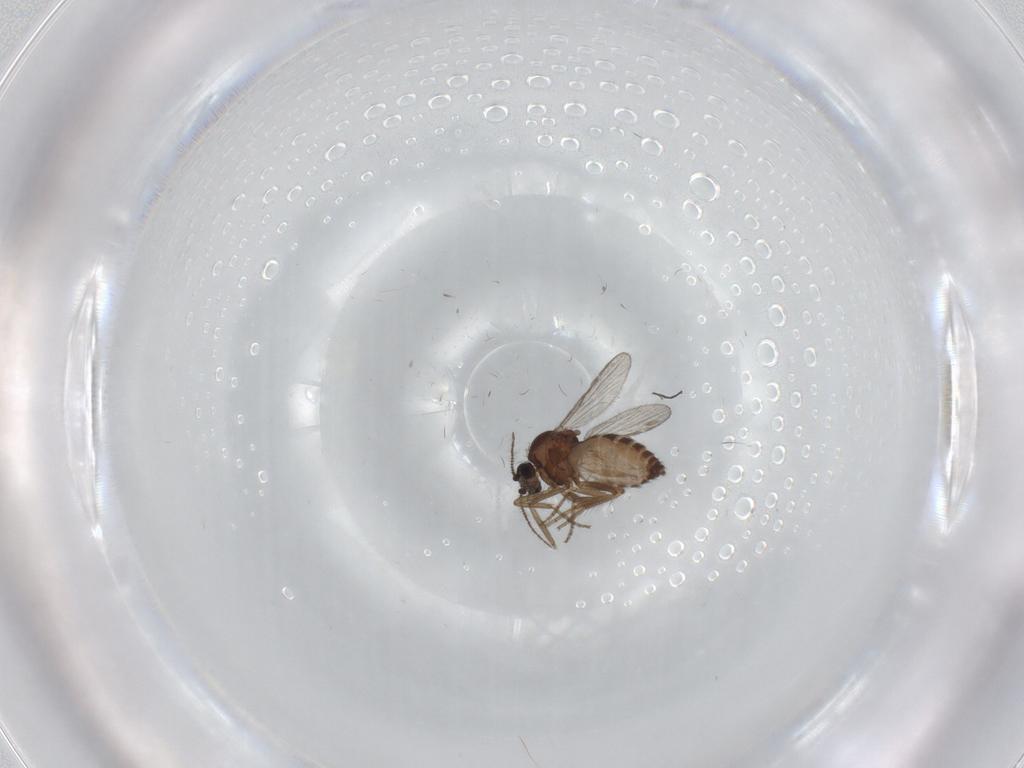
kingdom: Animalia
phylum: Arthropoda
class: Insecta
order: Diptera
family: Ceratopogonidae
